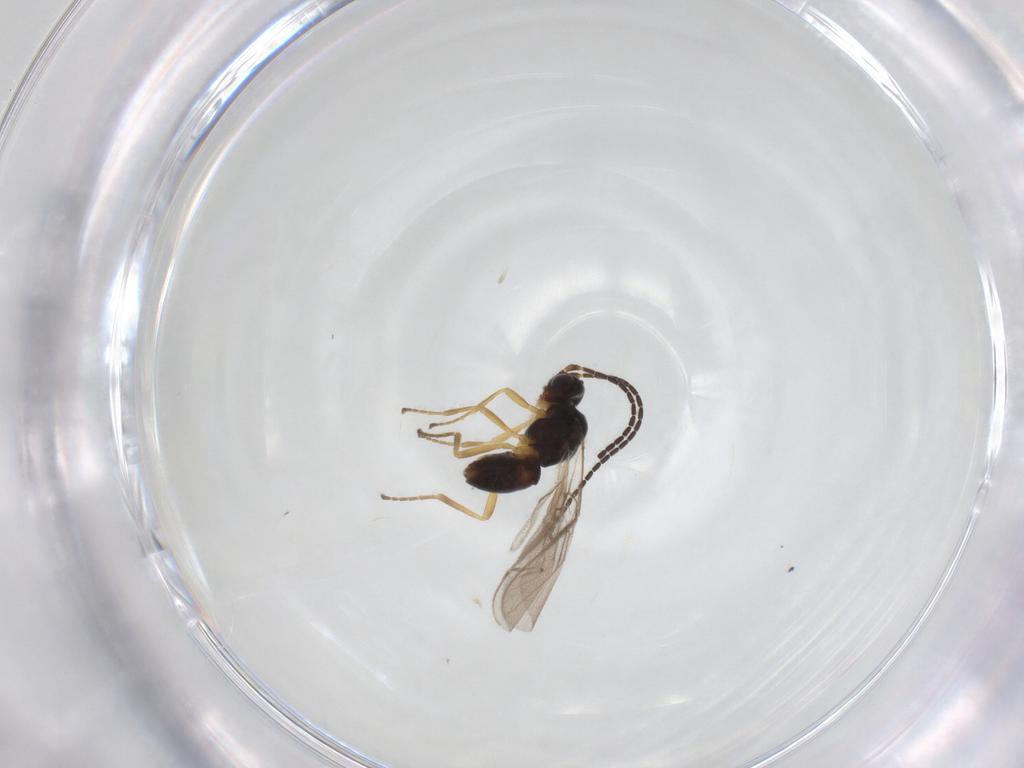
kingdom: Animalia
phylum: Arthropoda
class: Insecta
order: Hymenoptera
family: Braconidae
